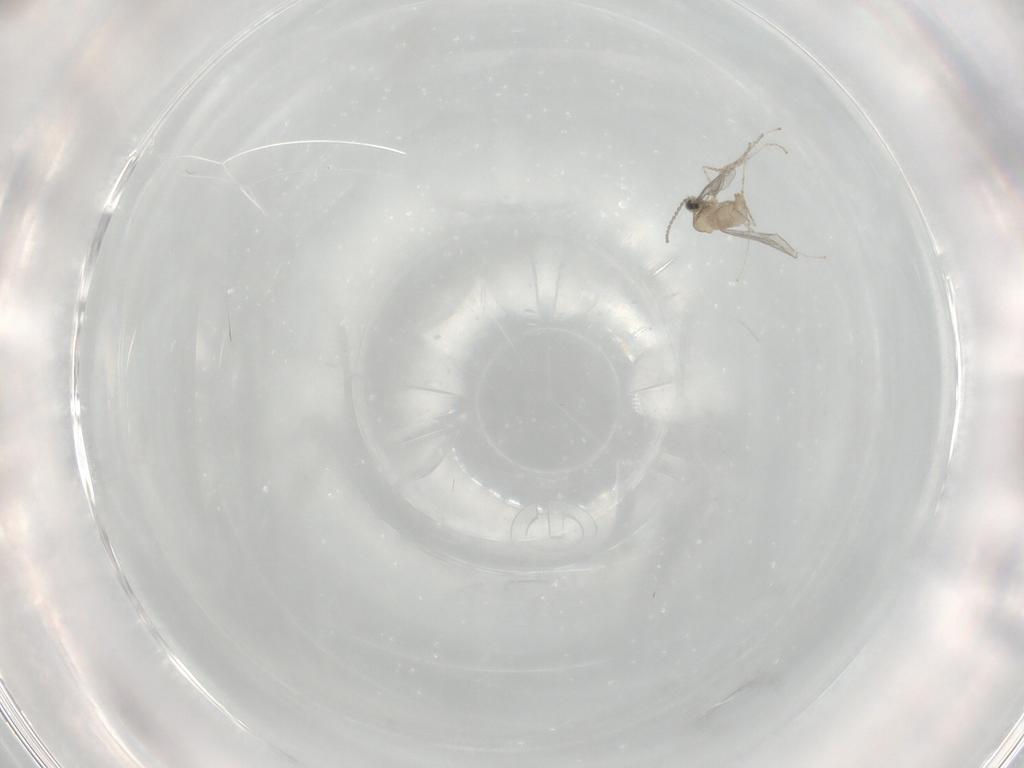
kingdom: Animalia
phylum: Arthropoda
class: Insecta
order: Diptera
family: Chironomidae
